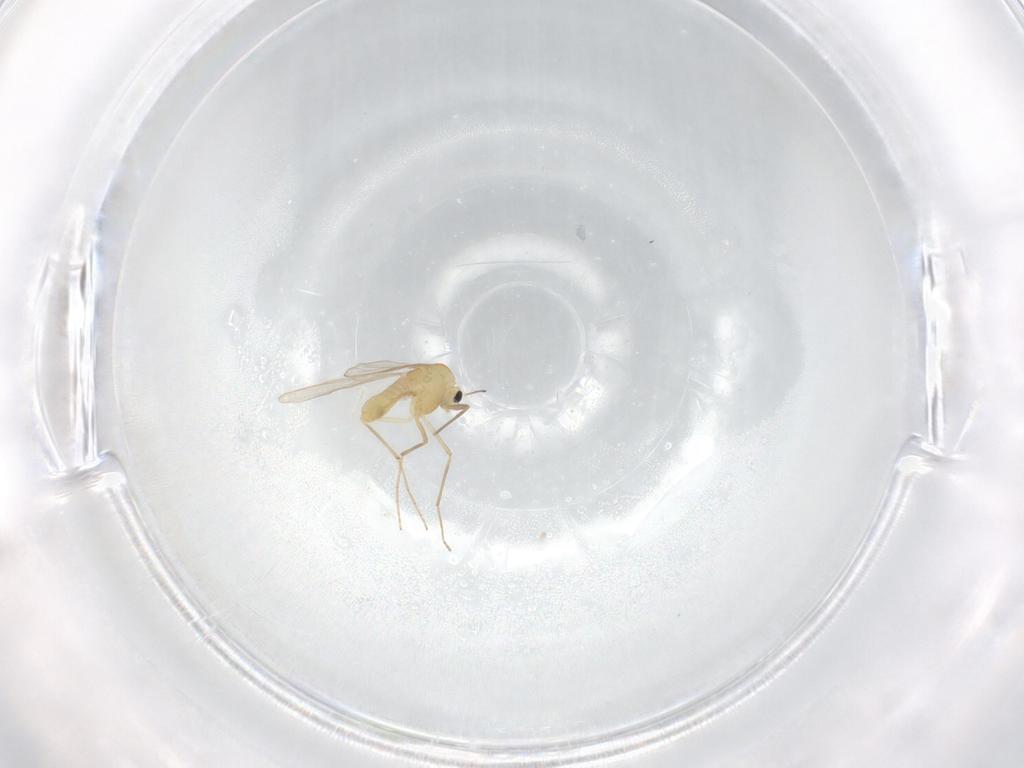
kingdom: Animalia
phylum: Arthropoda
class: Insecta
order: Diptera
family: Chironomidae
